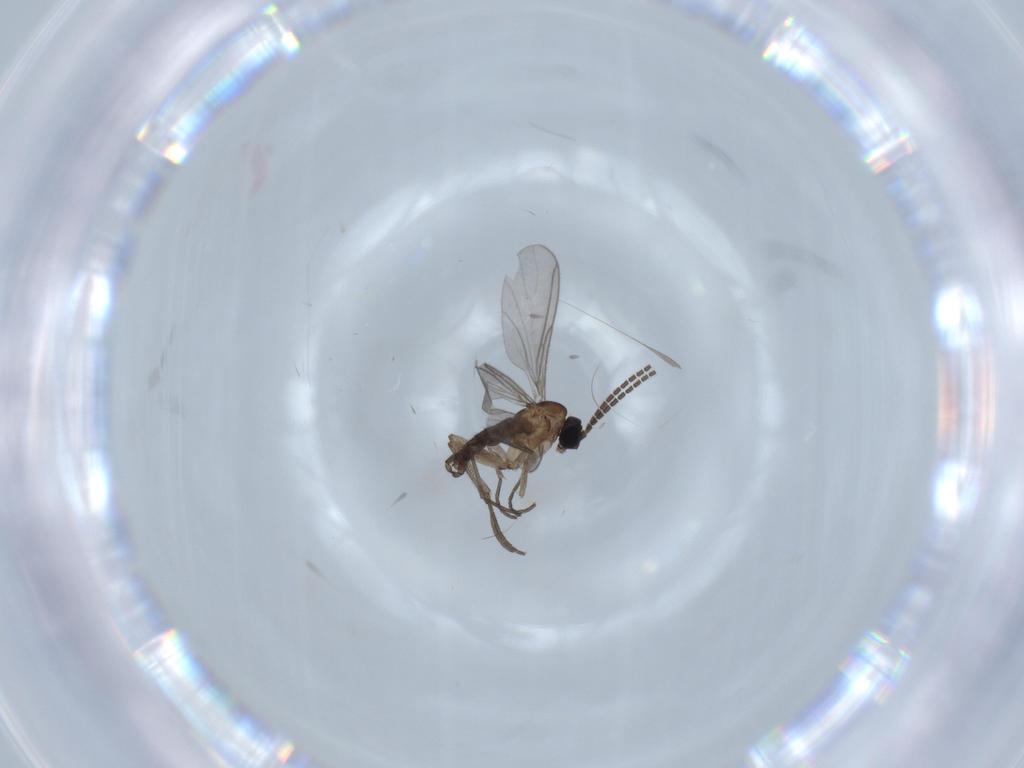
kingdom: Animalia
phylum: Arthropoda
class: Insecta
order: Diptera
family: Sciaridae
